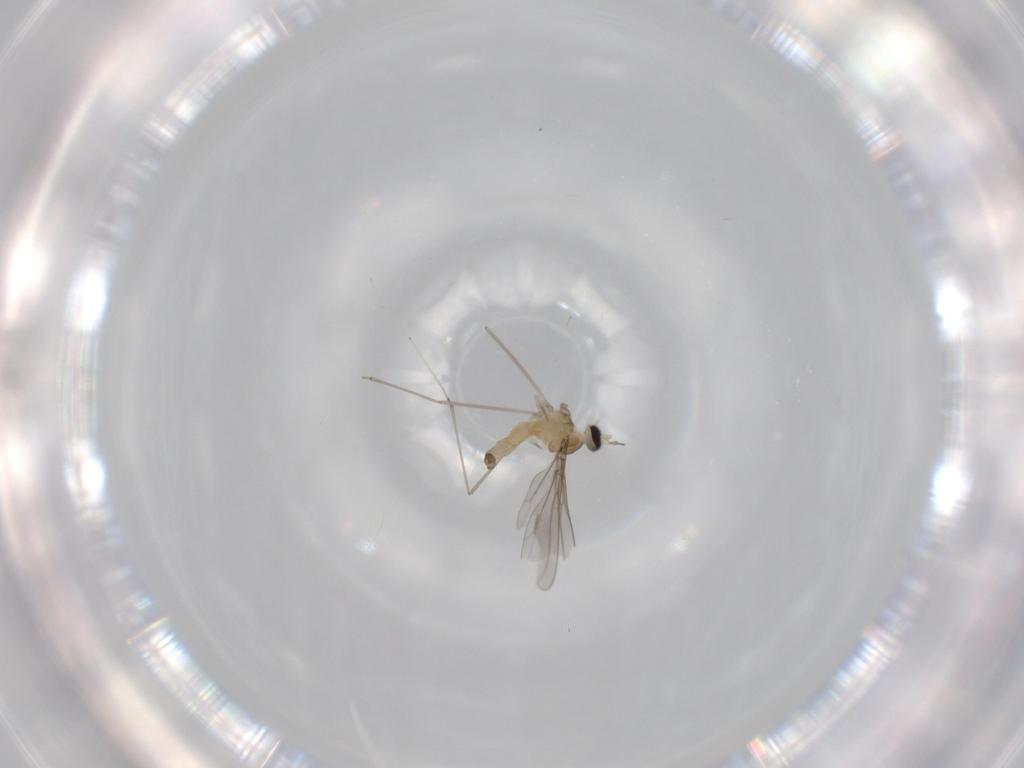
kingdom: Animalia
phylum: Arthropoda
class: Insecta
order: Diptera
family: Cecidomyiidae
